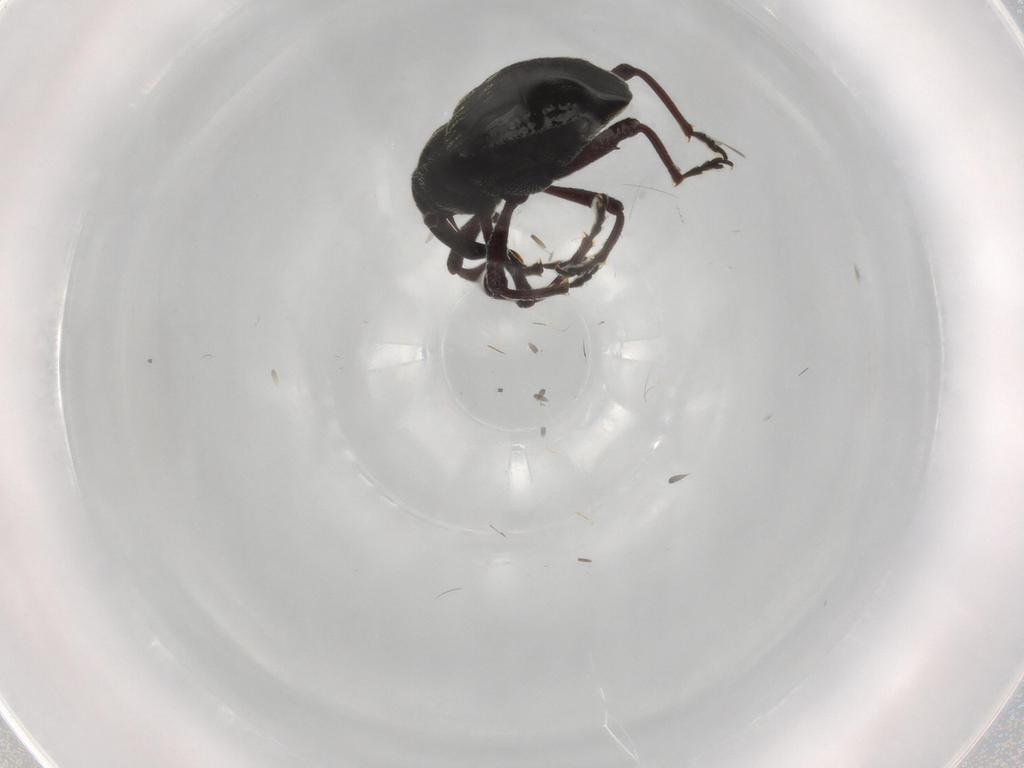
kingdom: Animalia
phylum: Arthropoda
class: Insecta
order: Coleoptera
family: Curculionidae
